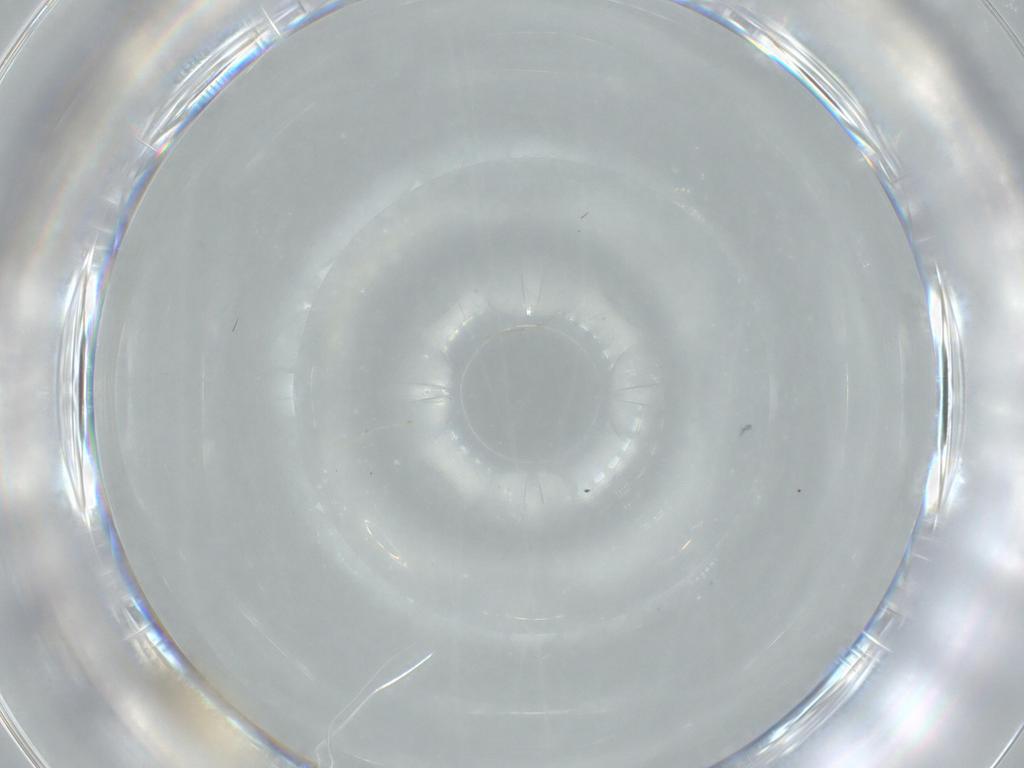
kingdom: Animalia
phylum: Arthropoda
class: Insecta
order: Diptera
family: Cecidomyiidae
